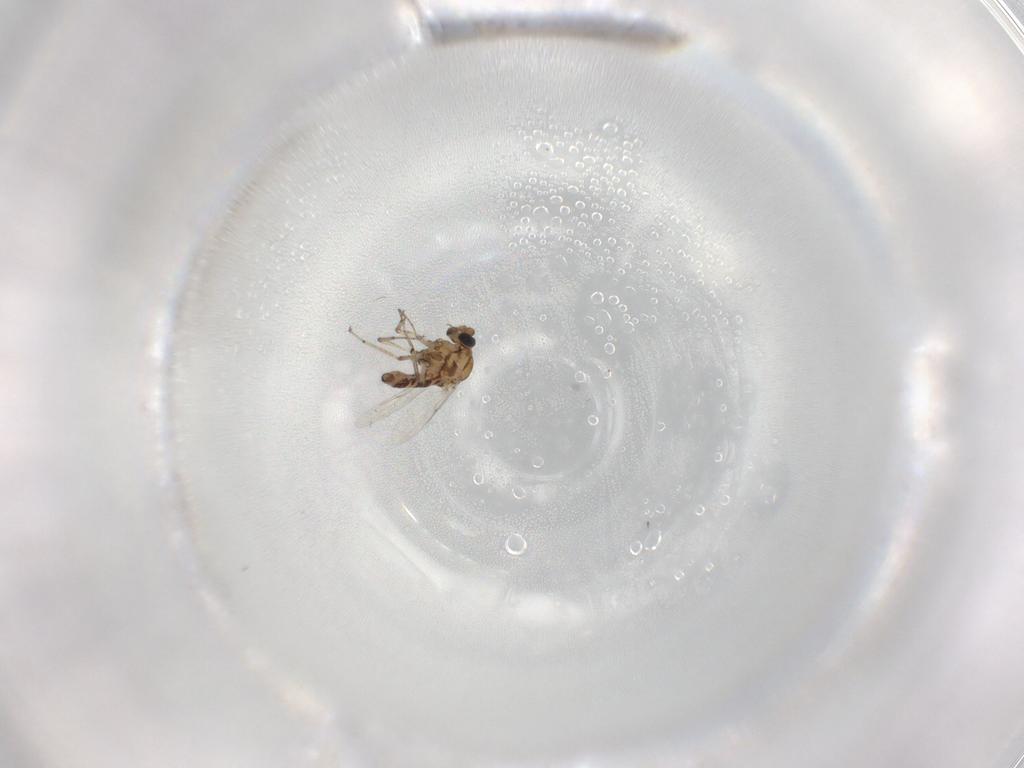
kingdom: Animalia
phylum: Arthropoda
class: Insecta
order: Diptera
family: Ceratopogonidae
